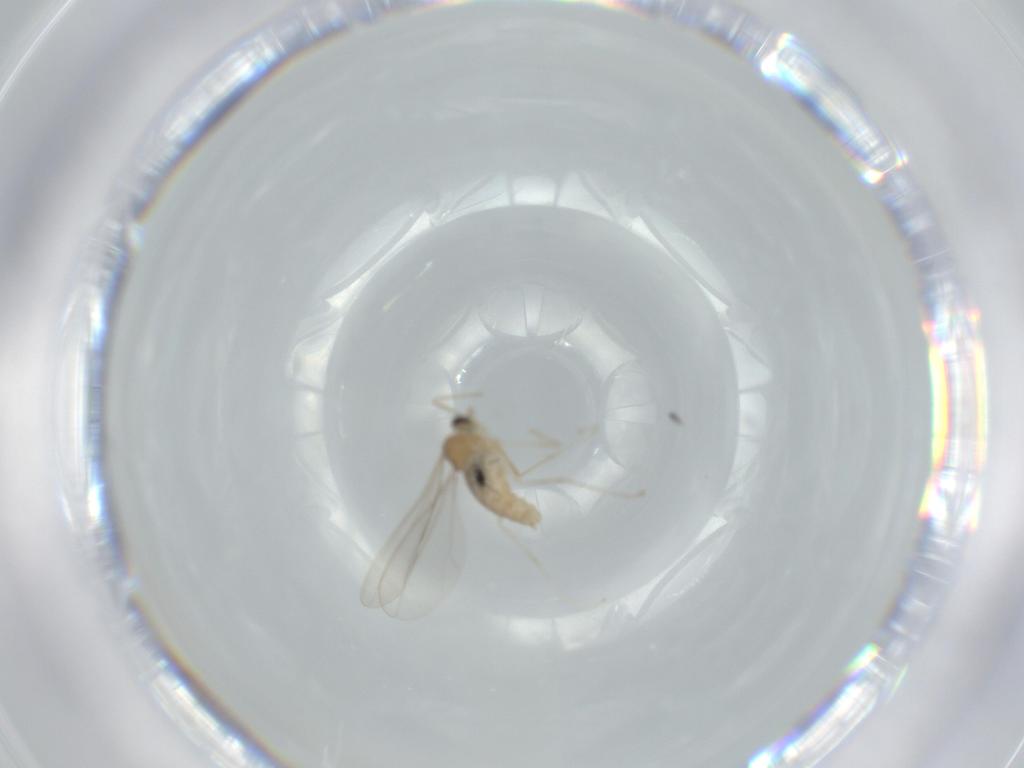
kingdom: Animalia
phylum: Arthropoda
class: Insecta
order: Diptera
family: Cecidomyiidae
